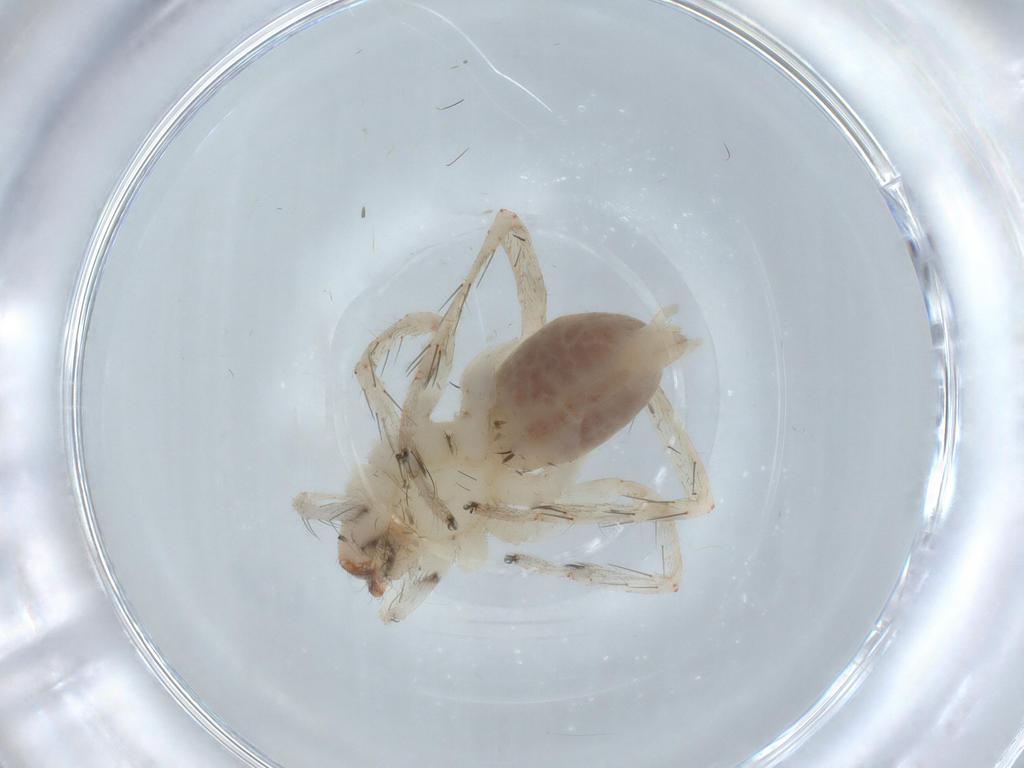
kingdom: Animalia
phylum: Arthropoda
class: Arachnida
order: Araneae
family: Anyphaenidae
